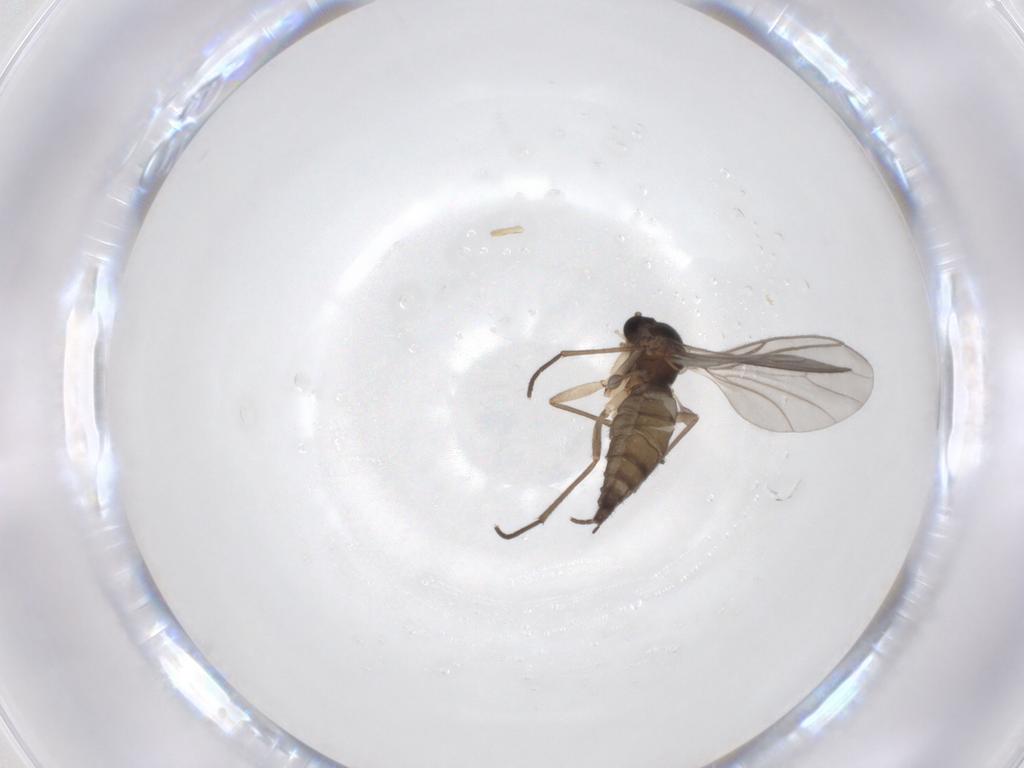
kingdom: Animalia
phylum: Arthropoda
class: Insecta
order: Diptera
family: Sciaridae
